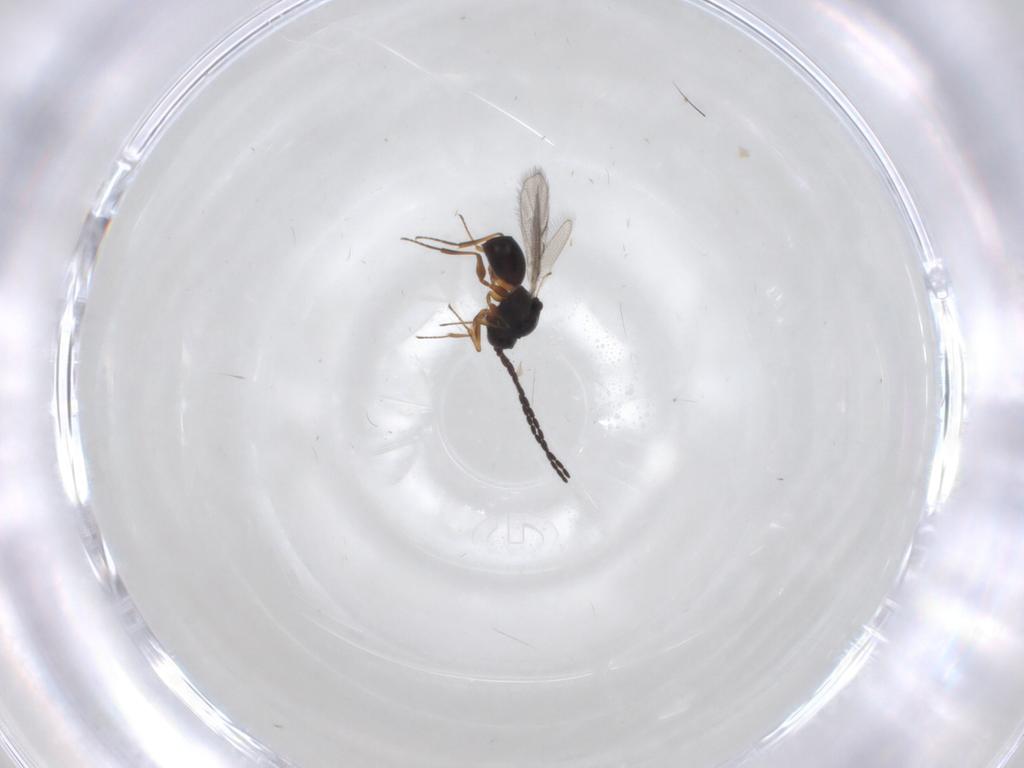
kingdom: Animalia
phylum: Arthropoda
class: Insecta
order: Hymenoptera
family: Figitidae
